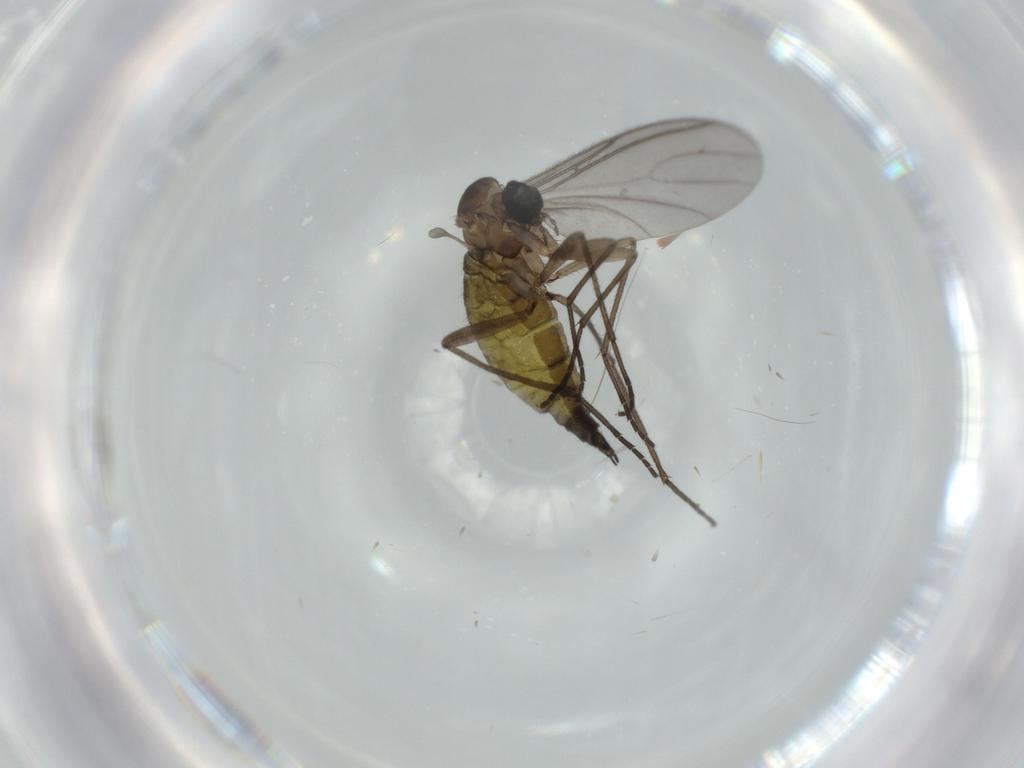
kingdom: Animalia
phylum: Arthropoda
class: Insecta
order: Diptera
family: Sciaridae
